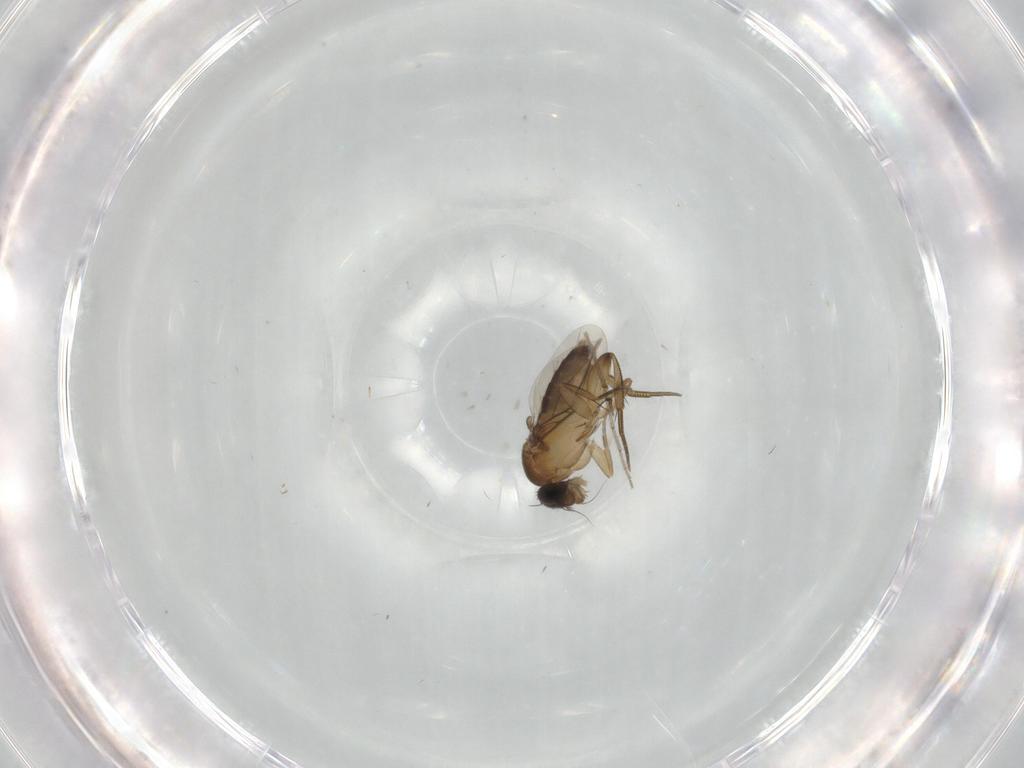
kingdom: Animalia
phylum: Arthropoda
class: Insecta
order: Diptera
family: Phoridae
